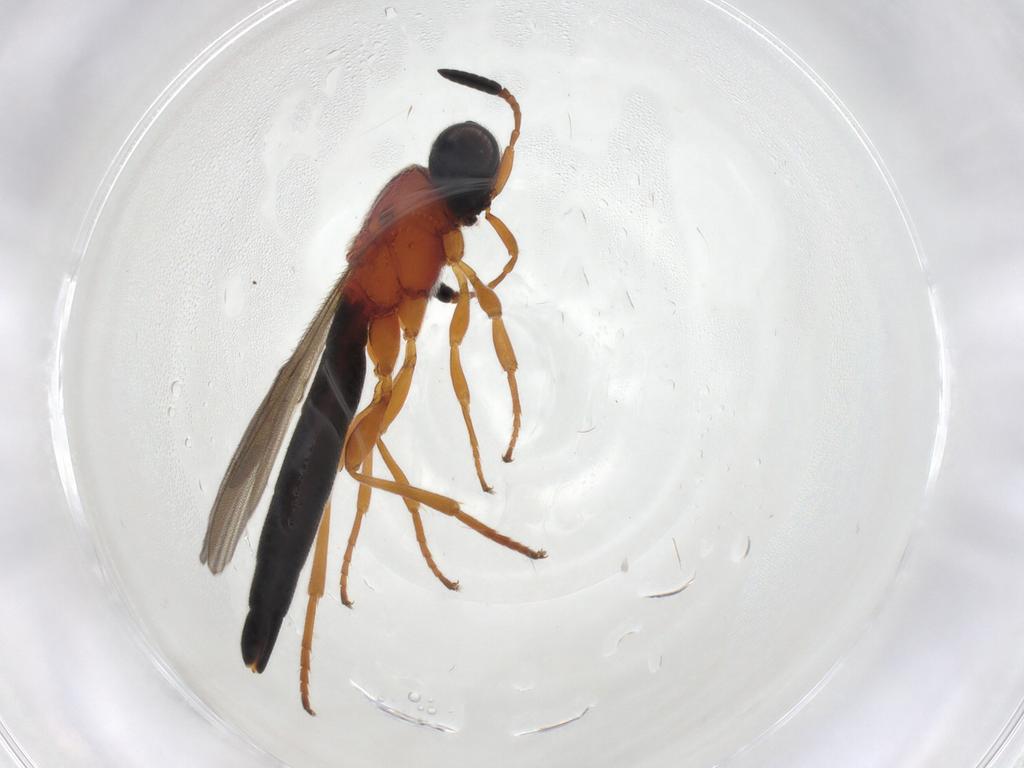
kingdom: Animalia
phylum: Arthropoda
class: Insecta
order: Hymenoptera
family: Scelionidae
